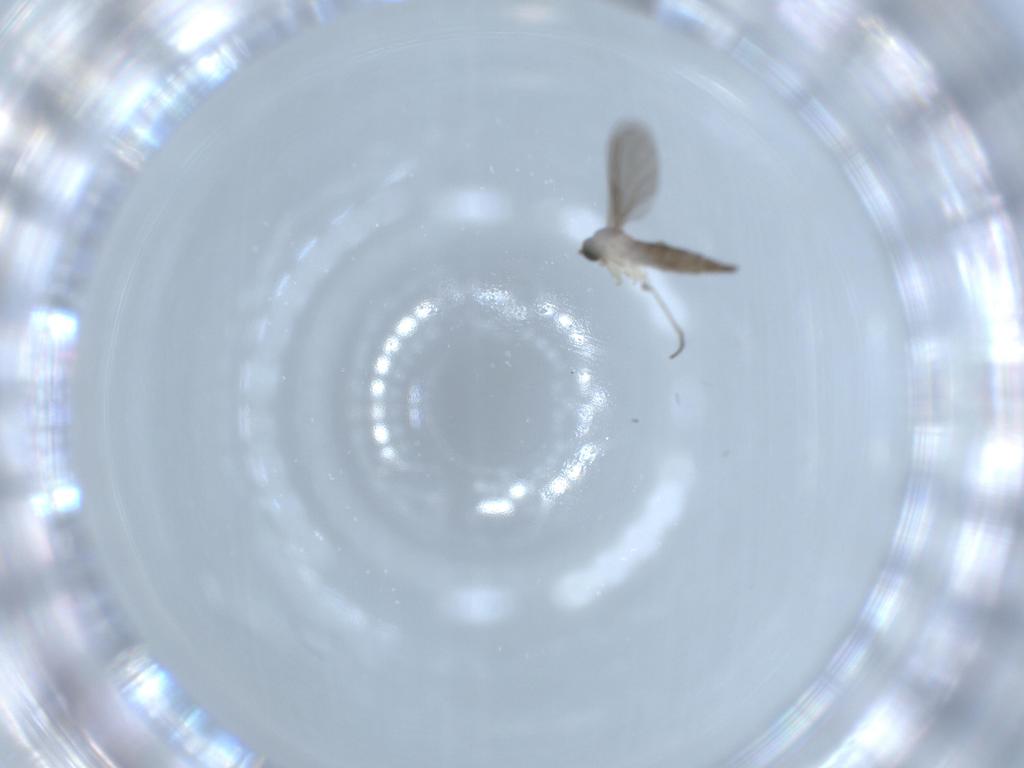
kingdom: Animalia
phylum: Arthropoda
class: Insecta
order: Diptera
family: Sciaridae
